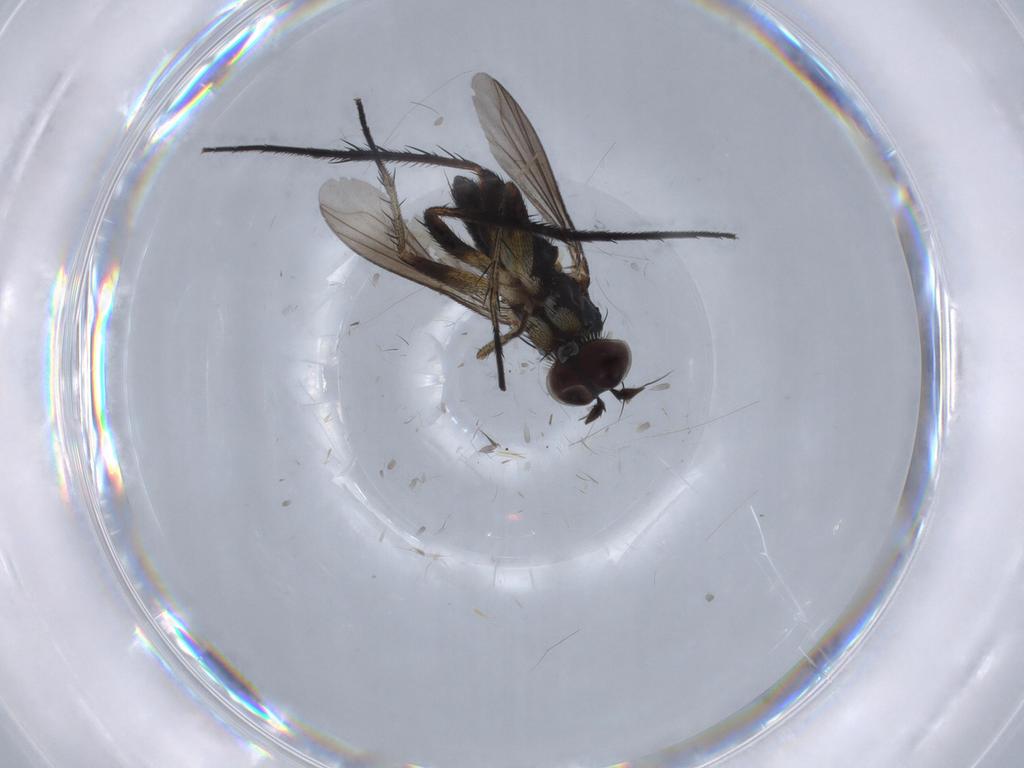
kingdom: Animalia
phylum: Arthropoda
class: Insecta
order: Diptera
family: Dolichopodidae
